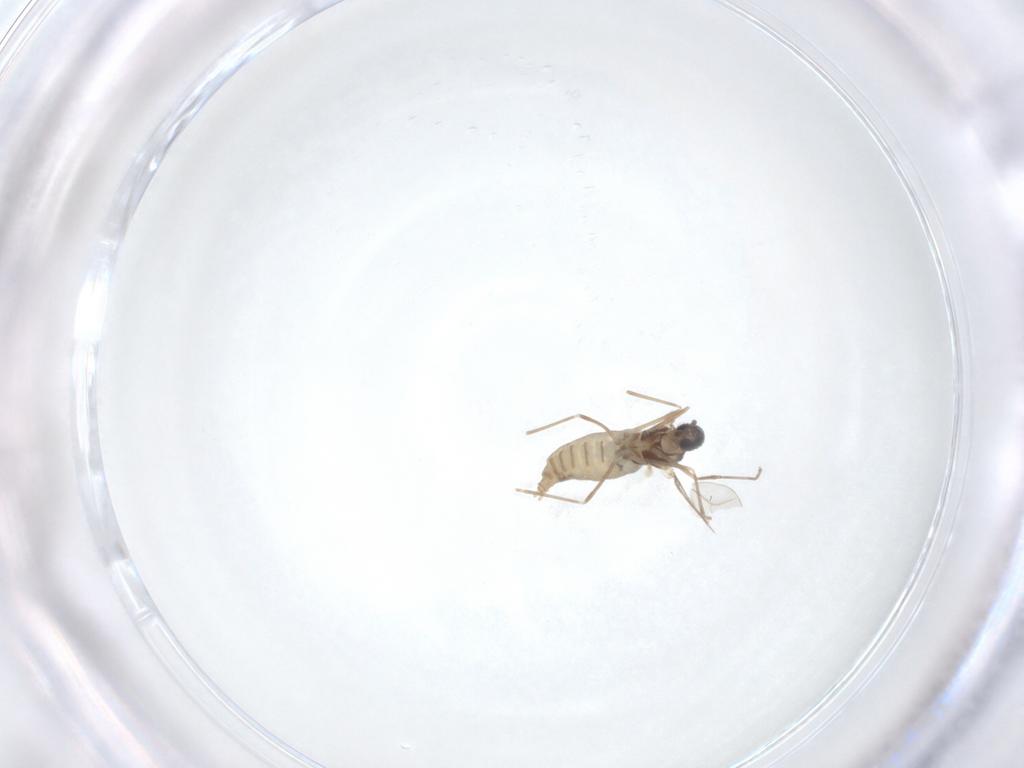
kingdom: Animalia
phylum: Arthropoda
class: Insecta
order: Diptera
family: Cecidomyiidae
